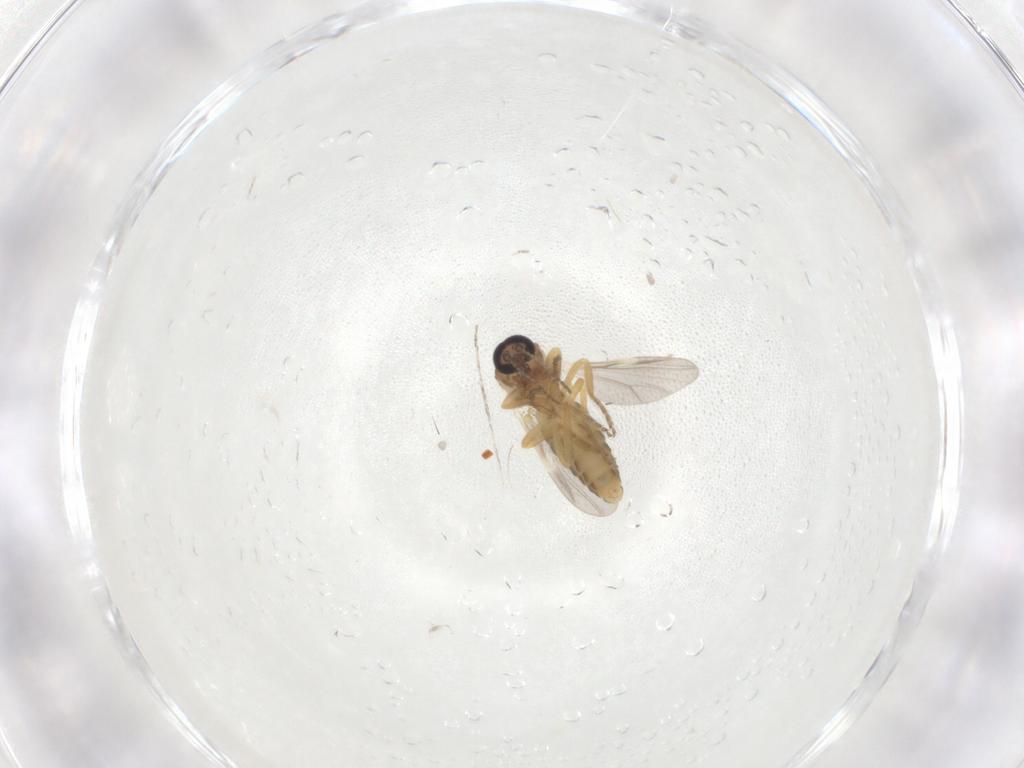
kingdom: Animalia
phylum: Arthropoda
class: Insecta
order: Diptera
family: Ceratopogonidae
